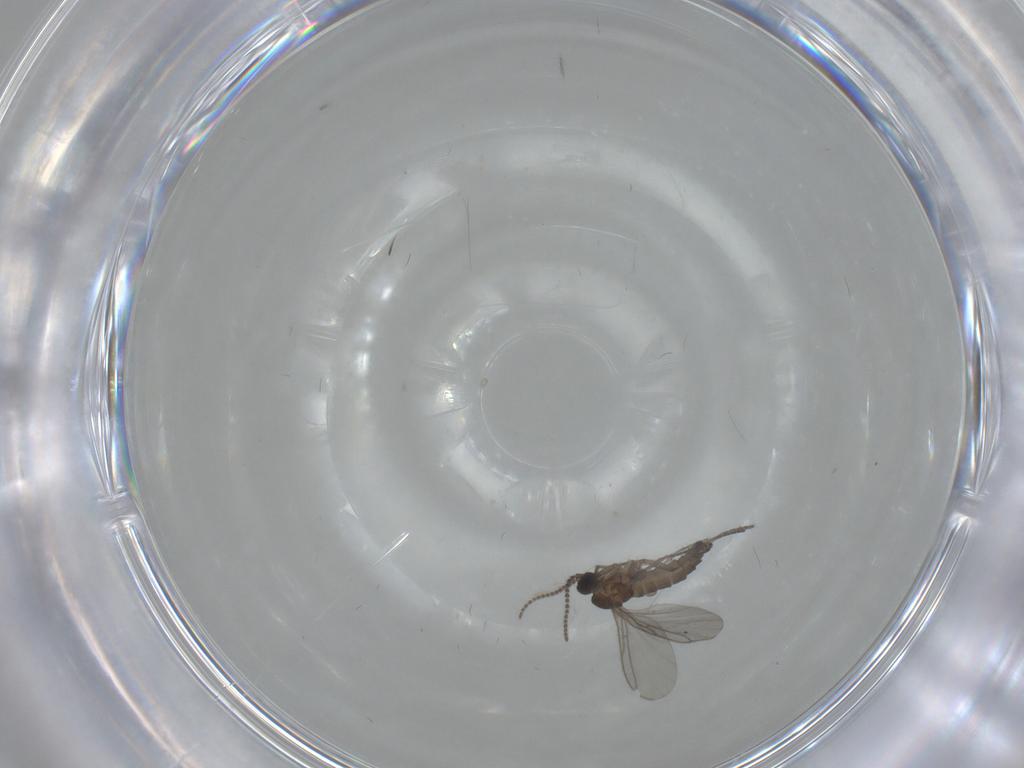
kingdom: Animalia
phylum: Arthropoda
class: Insecta
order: Diptera
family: Sciaridae
